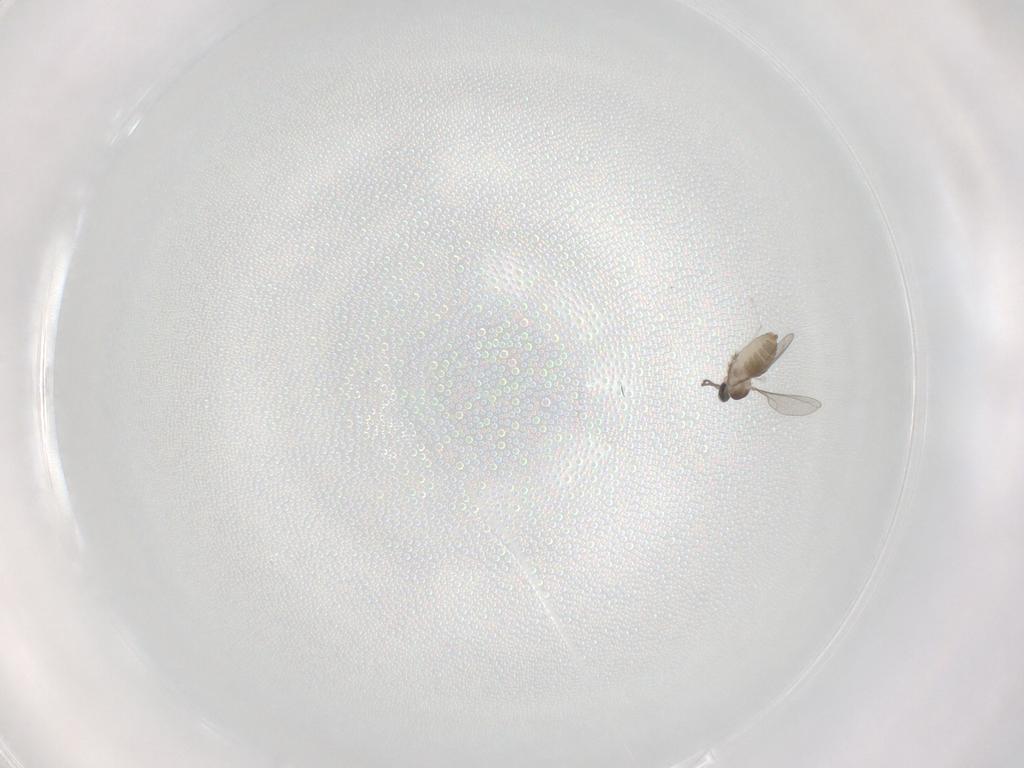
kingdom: Animalia
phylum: Arthropoda
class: Insecta
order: Diptera
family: Cecidomyiidae
